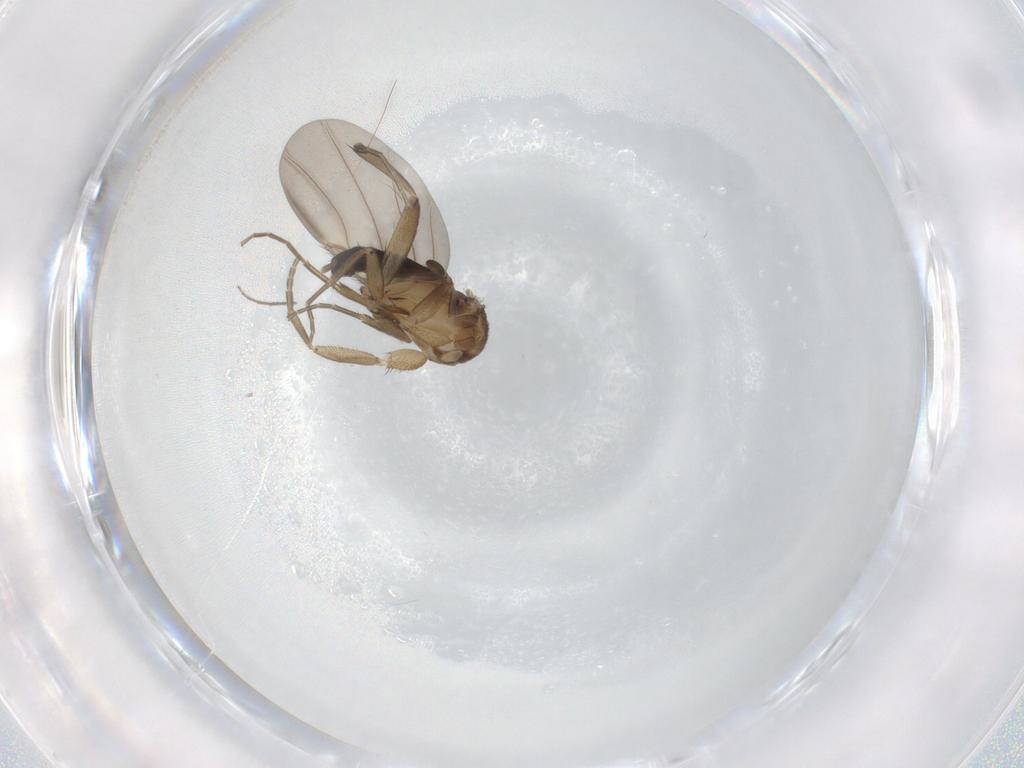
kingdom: Animalia
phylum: Arthropoda
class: Insecta
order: Diptera
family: Phoridae
